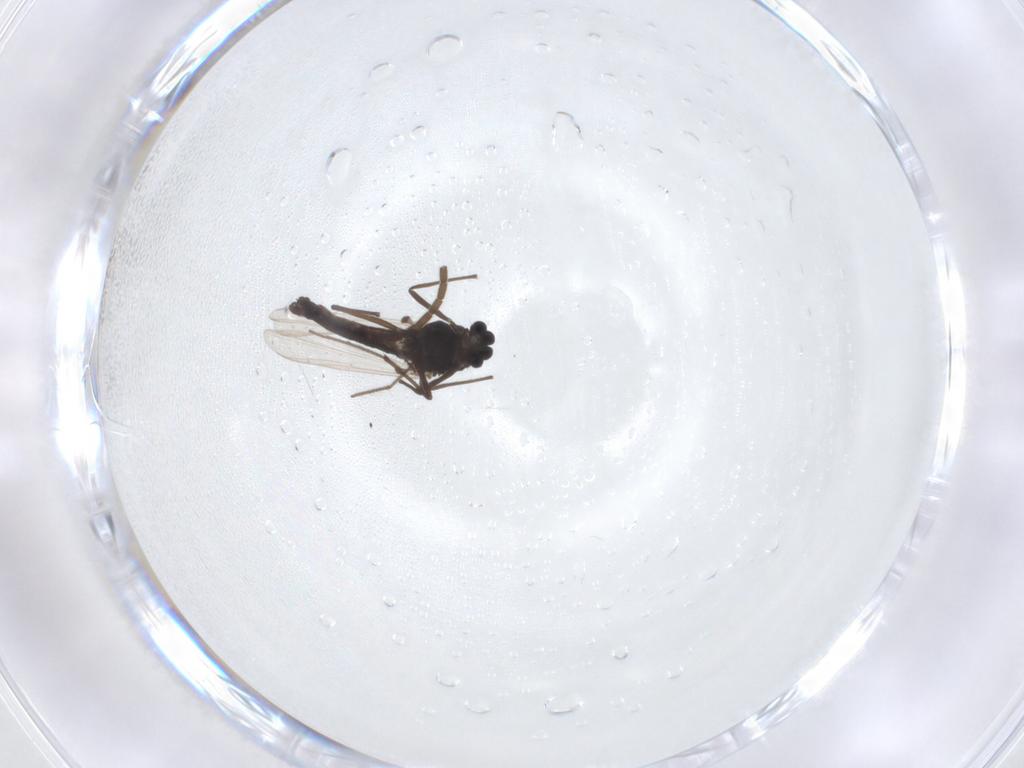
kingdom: Animalia
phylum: Arthropoda
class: Insecta
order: Diptera
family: Mycetophilidae
